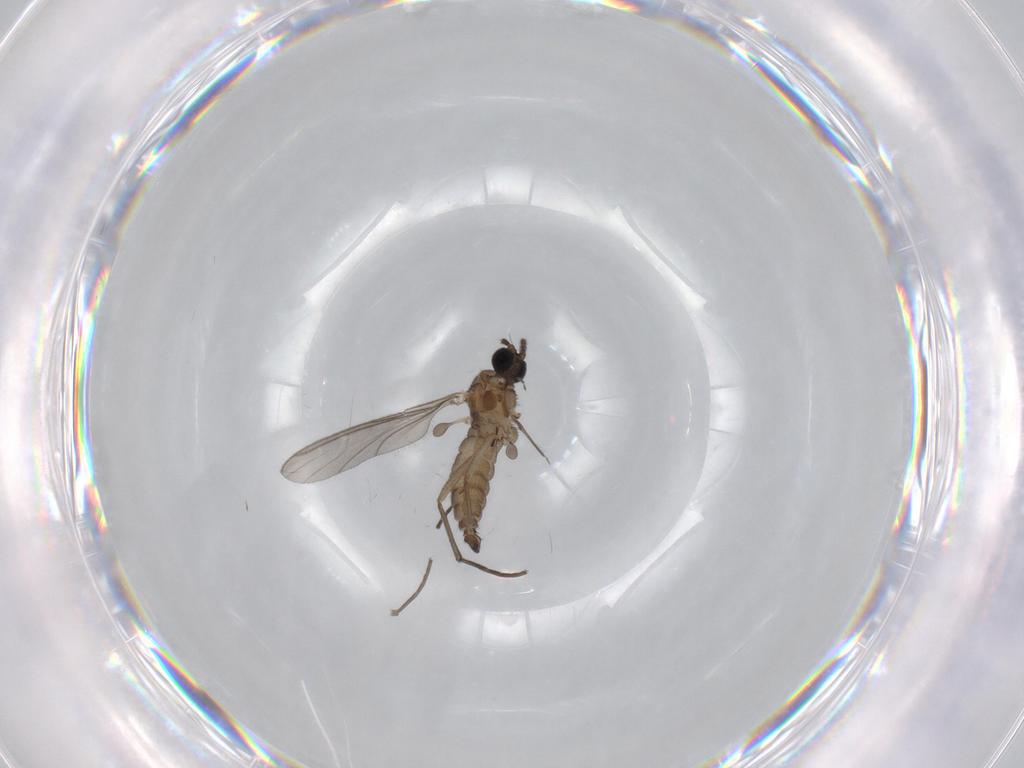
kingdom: Animalia
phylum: Arthropoda
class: Insecta
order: Diptera
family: Sciaridae
